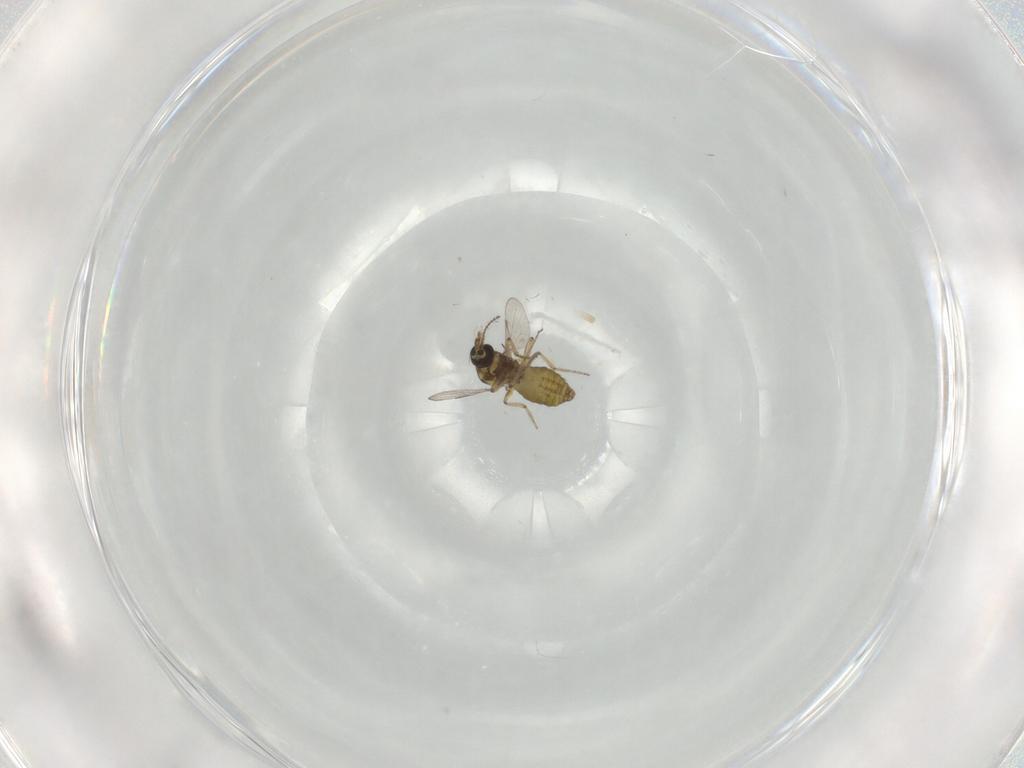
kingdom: Animalia
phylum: Arthropoda
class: Insecta
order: Diptera
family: Ceratopogonidae
